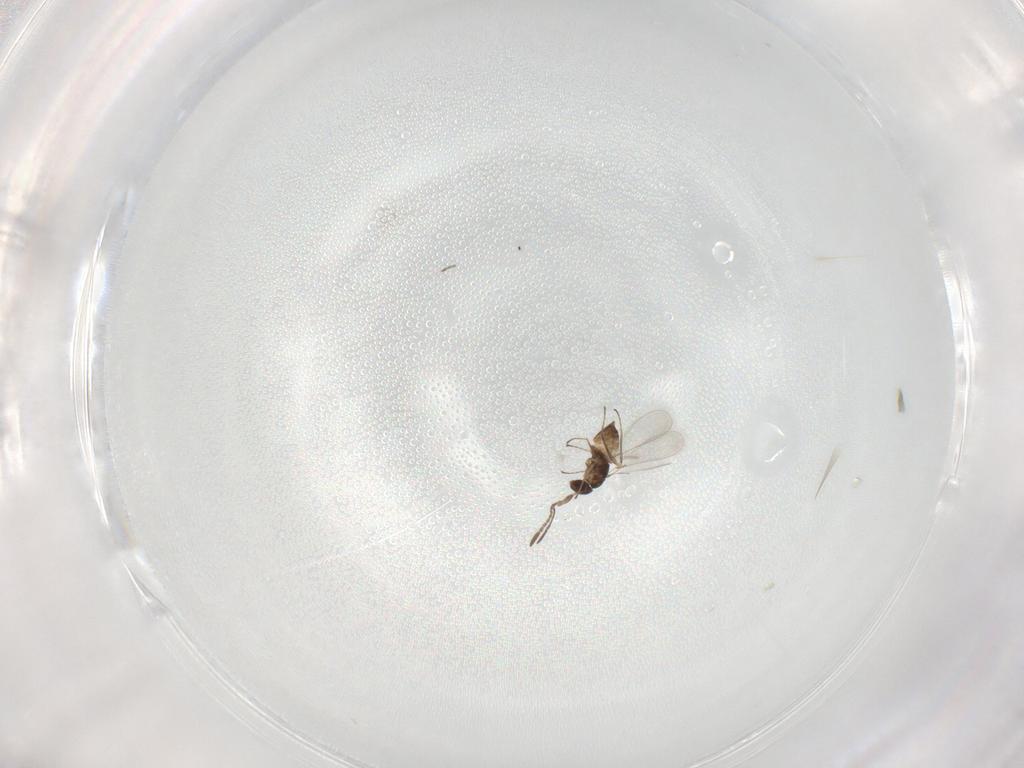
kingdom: Animalia
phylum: Arthropoda
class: Insecta
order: Hymenoptera
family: Mymaridae
